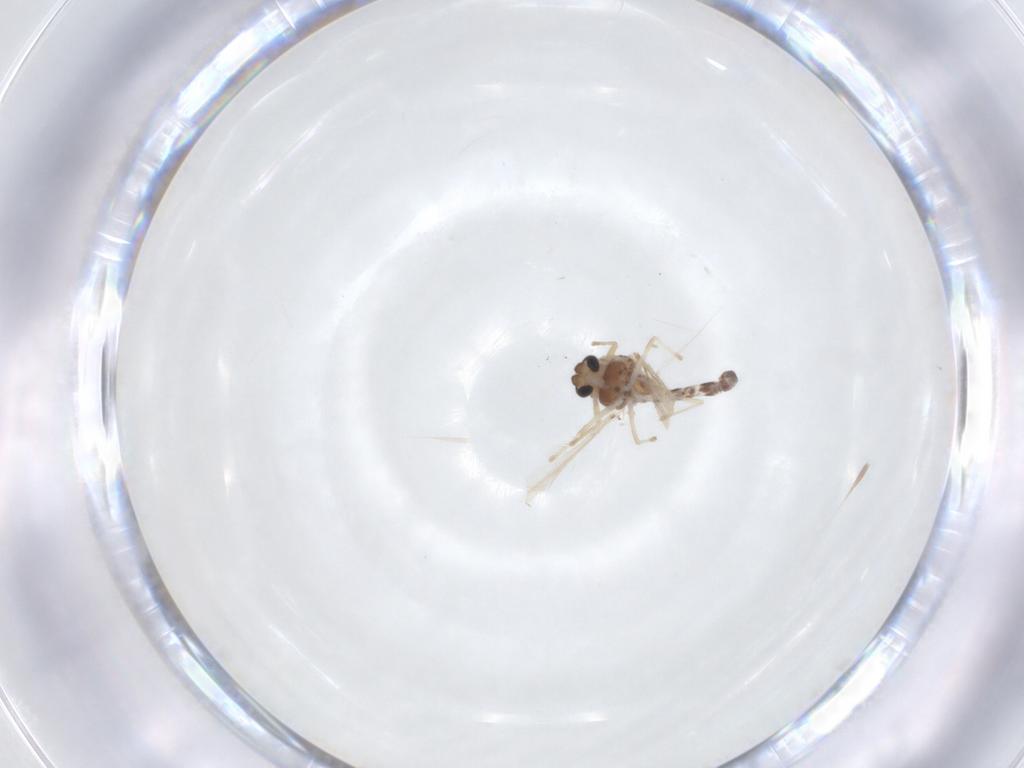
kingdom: Animalia
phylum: Arthropoda
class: Insecta
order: Diptera
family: Chironomidae
